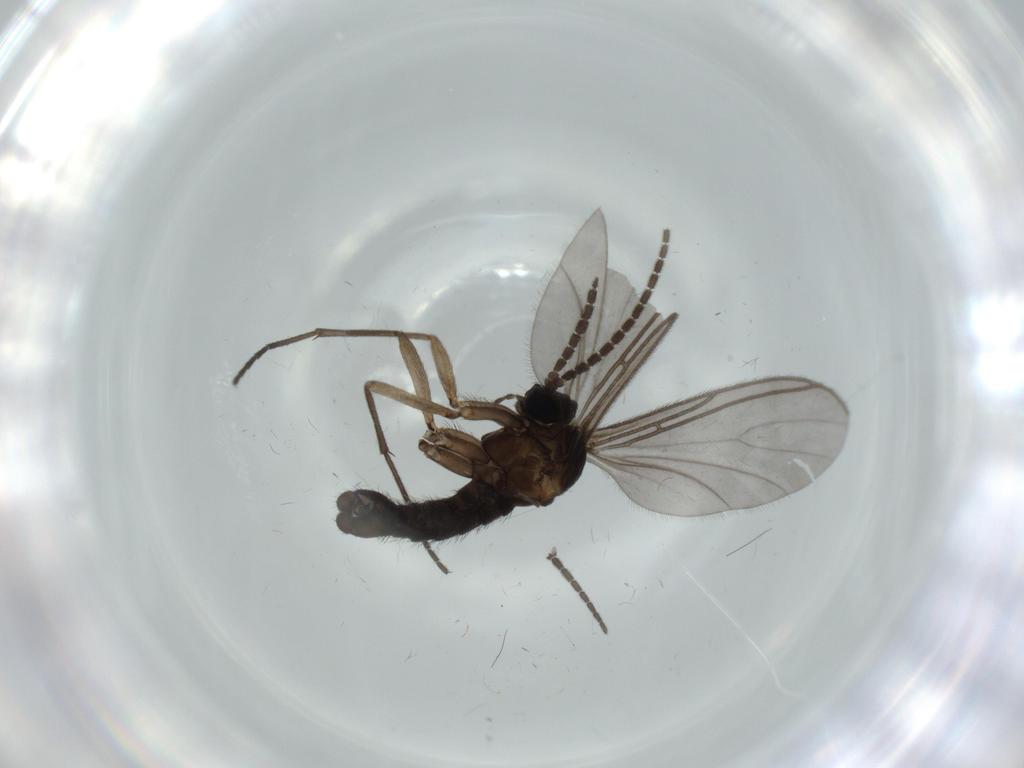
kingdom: Animalia
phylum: Arthropoda
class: Insecta
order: Diptera
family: Sciaridae
